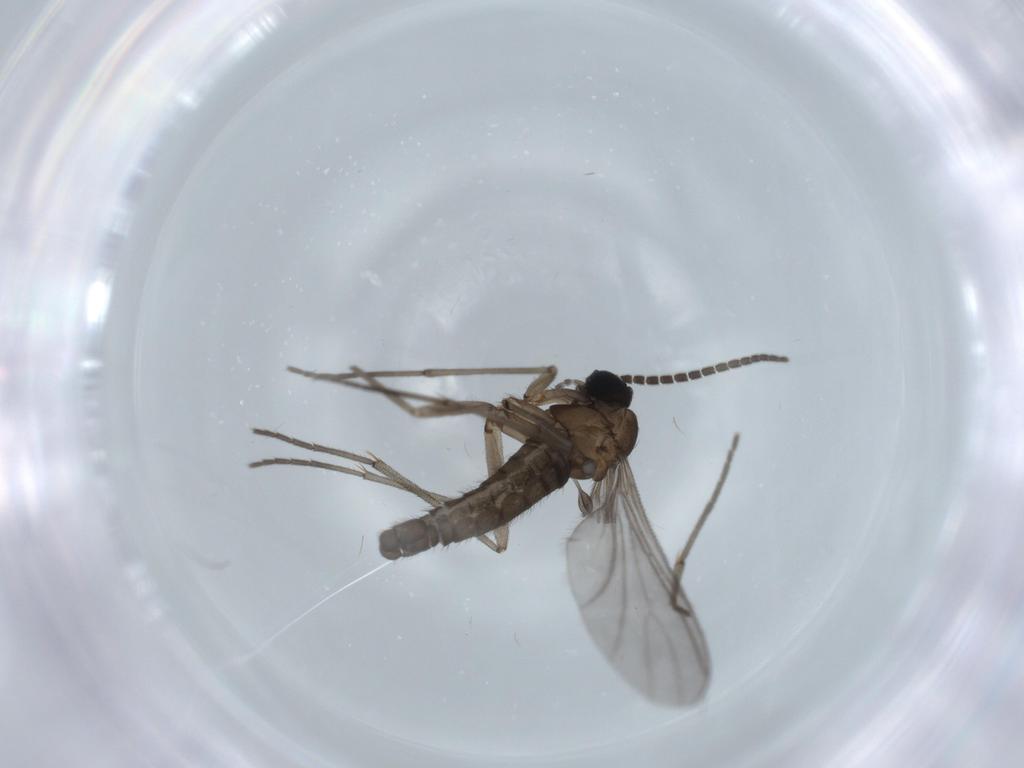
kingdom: Animalia
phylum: Arthropoda
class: Insecta
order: Diptera
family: Sciaridae
